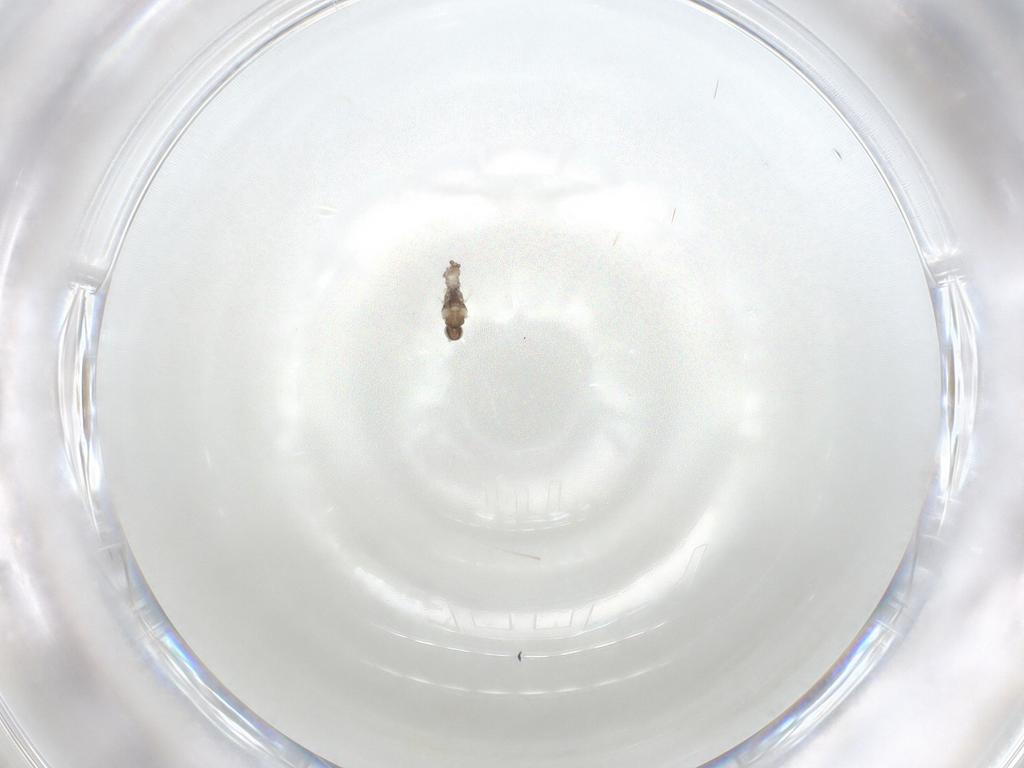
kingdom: Animalia
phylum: Arthropoda
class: Insecta
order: Diptera
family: Cecidomyiidae
